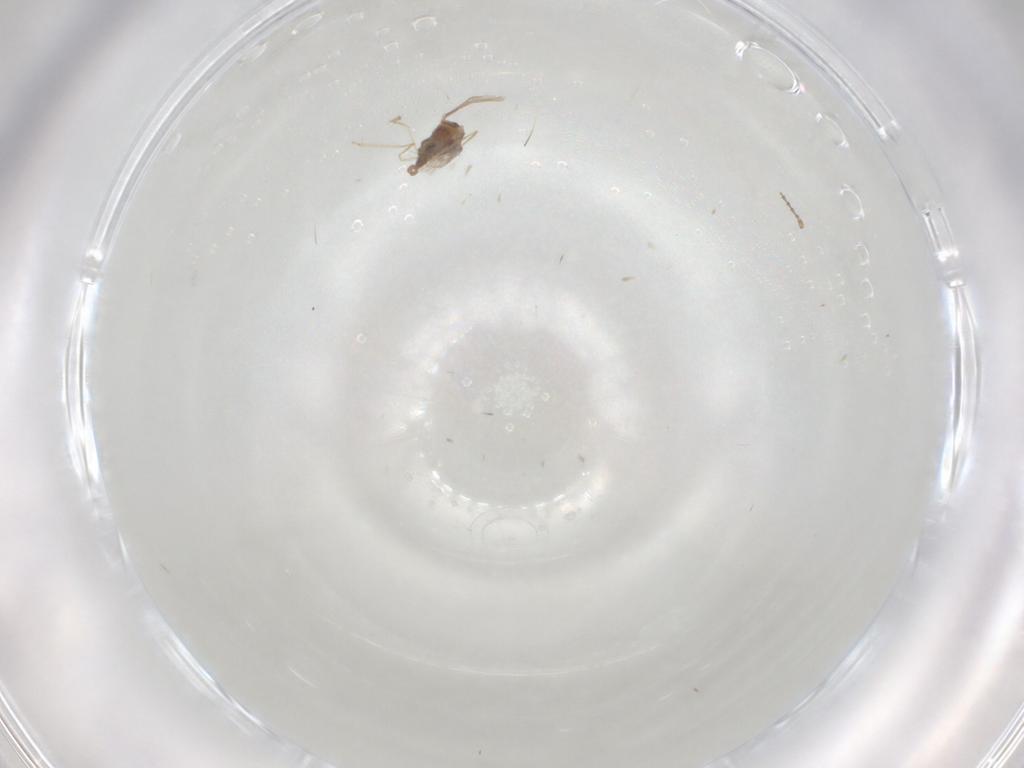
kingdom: Animalia
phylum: Arthropoda
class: Insecta
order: Diptera
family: Cecidomyiidae
